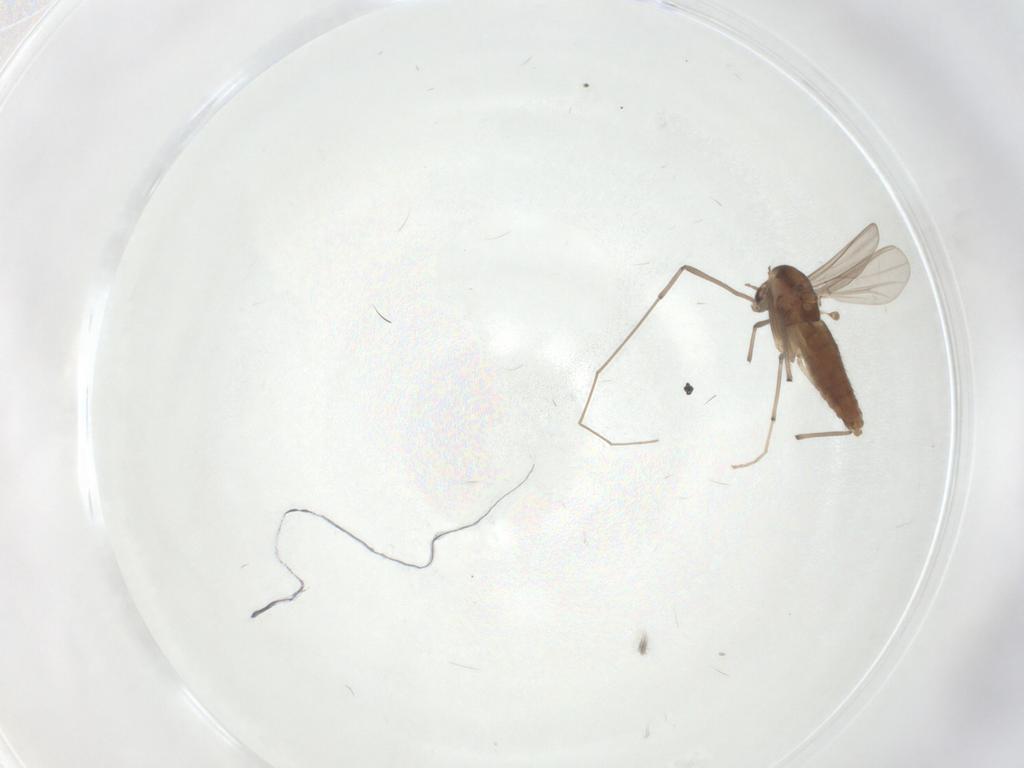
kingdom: Animalia
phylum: Arthropoda
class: Insecta
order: Diptera
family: Chironomidae
